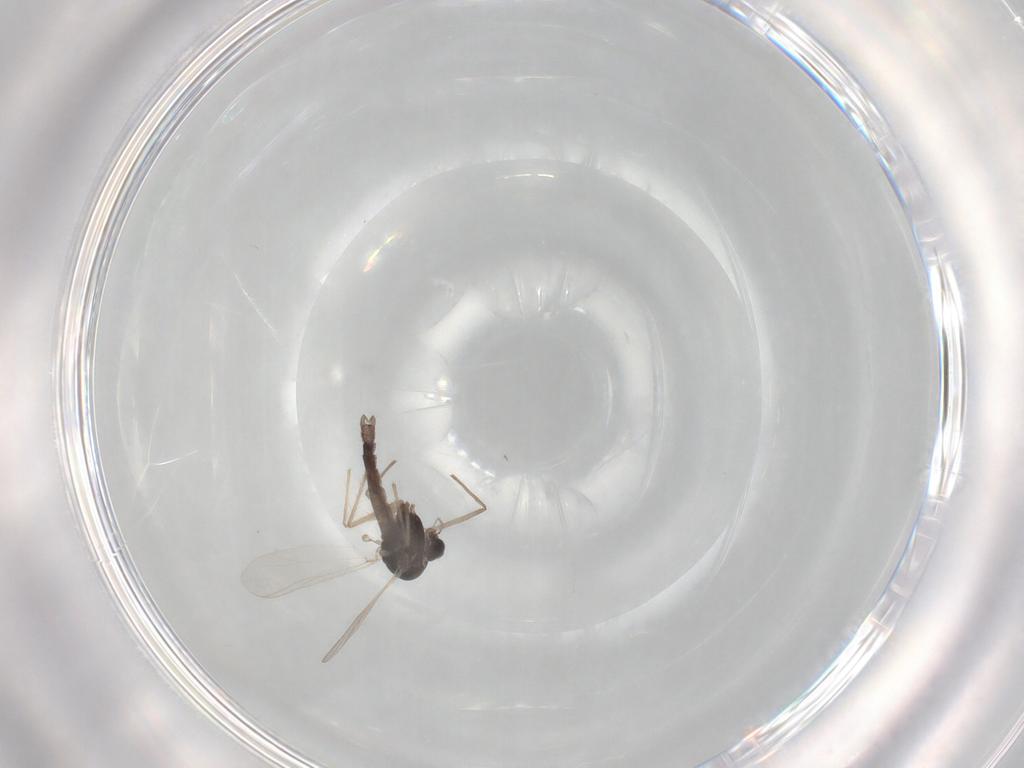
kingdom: Animalia
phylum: Arthropoda
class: Insecta
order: Diptera
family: Chironomidae
